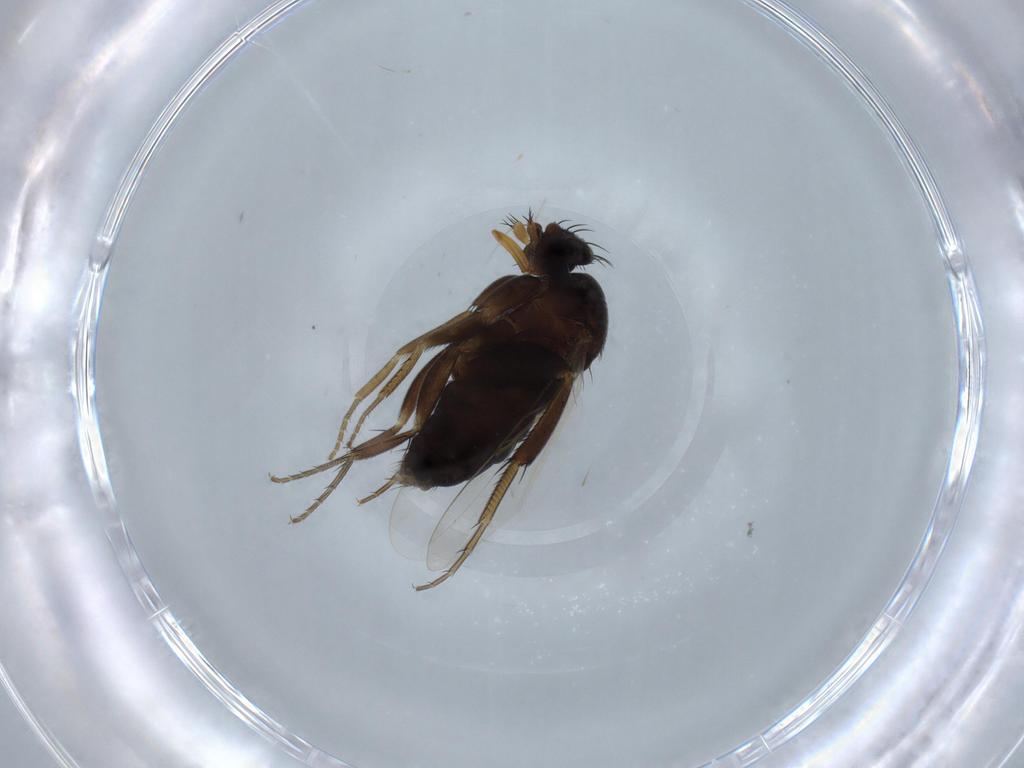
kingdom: Animalia
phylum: Arthropoda
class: Insecta
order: Diptera
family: Phoridae
